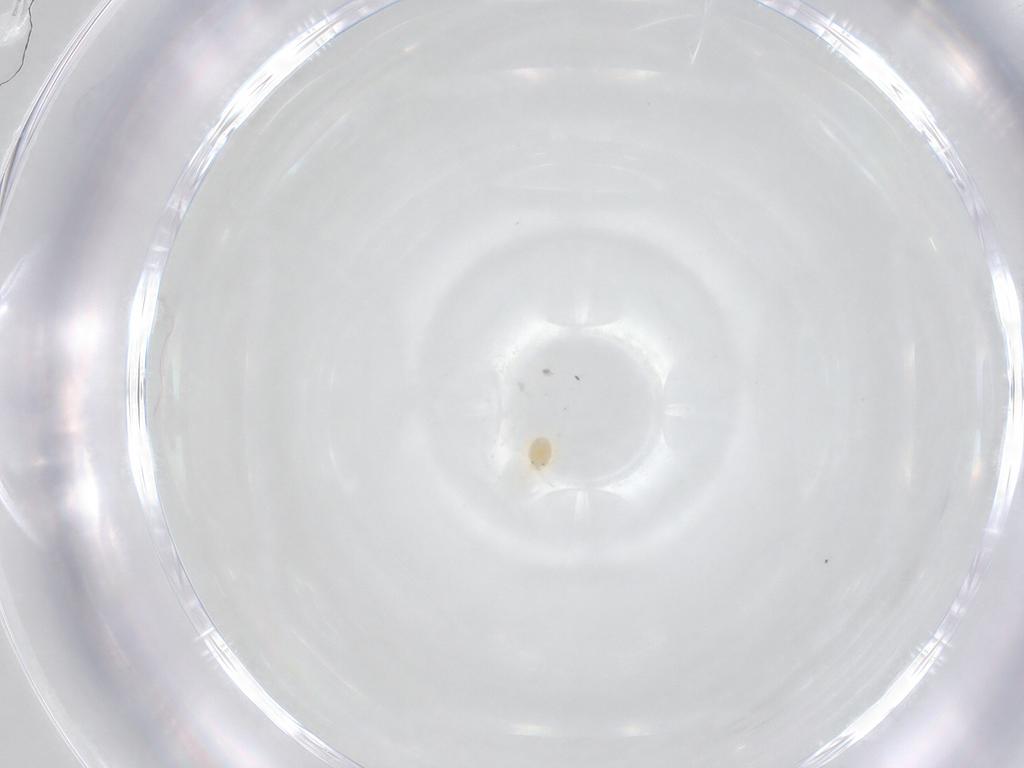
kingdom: Animalia
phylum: Arthropoda
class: Arachnida
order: Trombidiformes
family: Torrenticolidae
